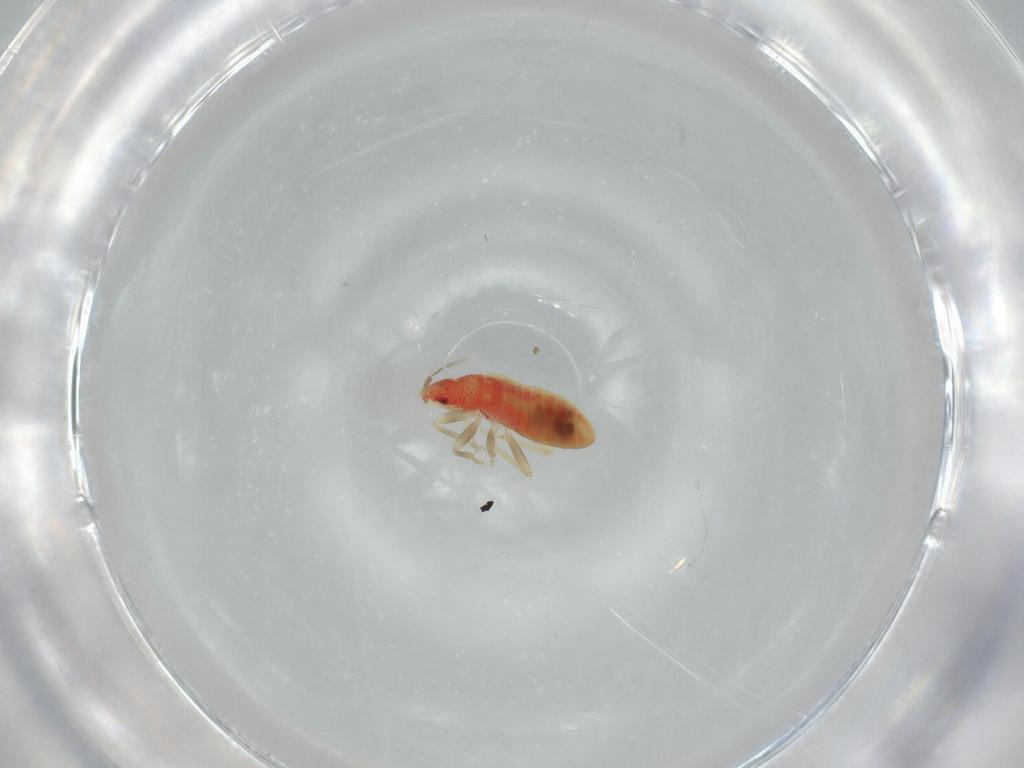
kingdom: Animalia
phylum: Arthropoda
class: Insecta
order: Hemiptera
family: Anthocoridae
